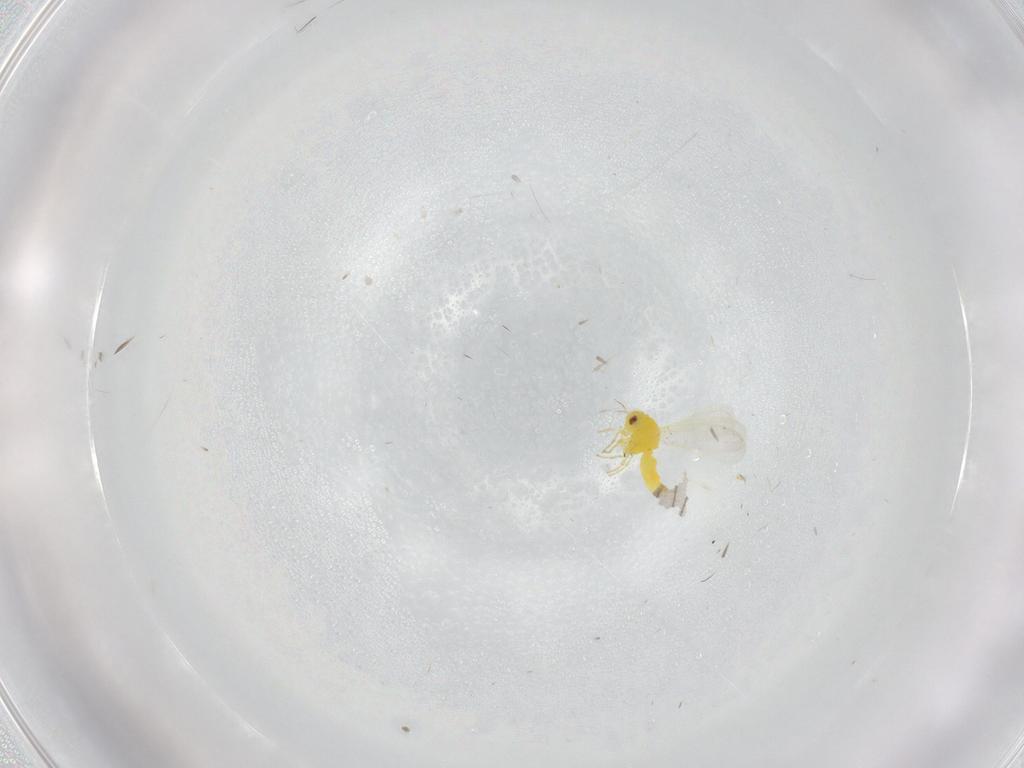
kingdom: Animalia
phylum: Arthropoda
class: Insecta
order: Hemiptera
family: Aleyrodidae
